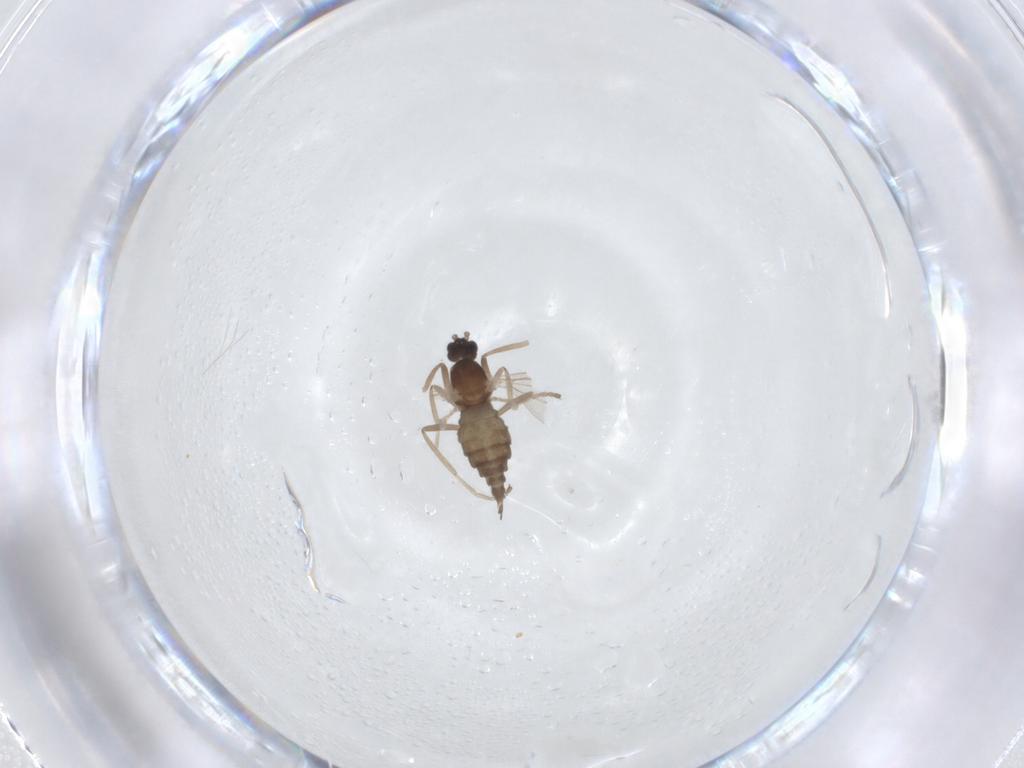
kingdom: Animalia
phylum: Arthropoda
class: Insecta
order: Diptera
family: Cecidomyiidae
